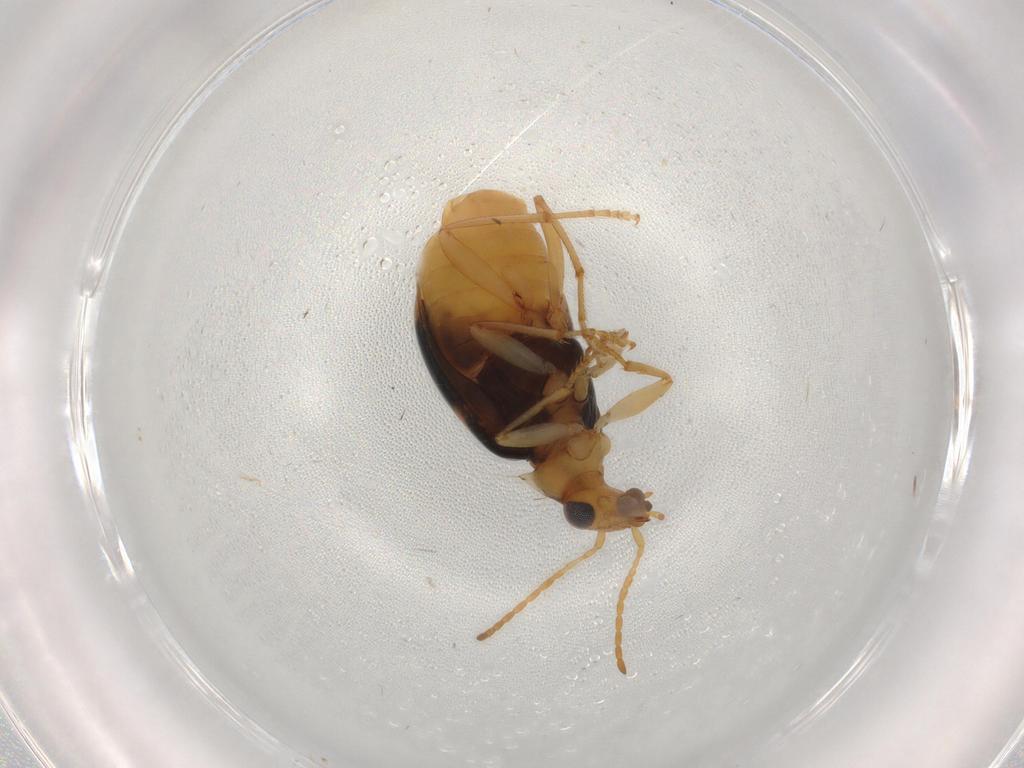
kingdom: Animalia
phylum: Arthropoda
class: Insecta
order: Coleoptera
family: Carabidae
